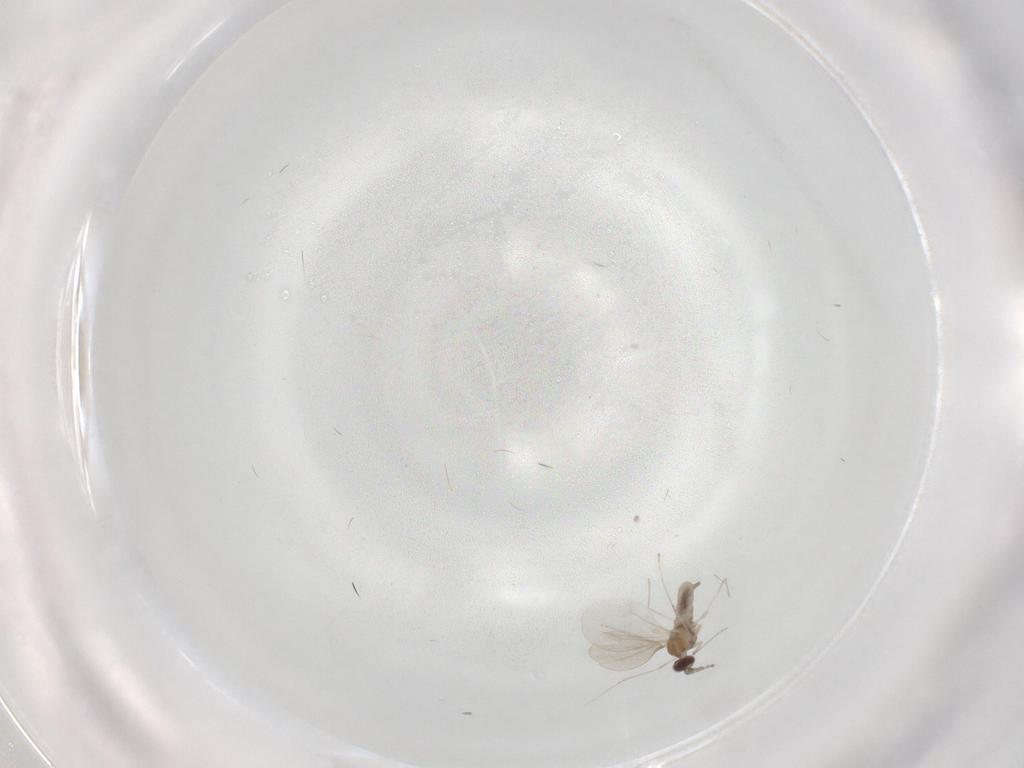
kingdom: Animalia
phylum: Arthropoda
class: Insecta
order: Diptera
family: Cecidomyiidae
